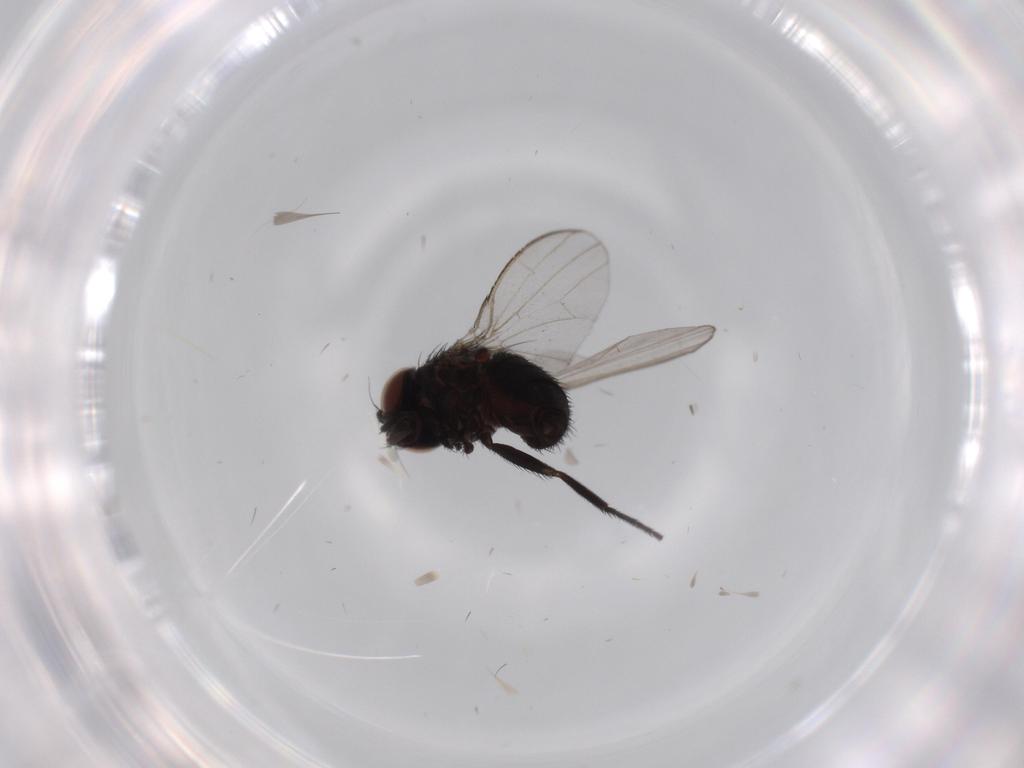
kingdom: Animalia
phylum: Arthropoda
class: Insecta
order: Diptera
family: Milichiidae
